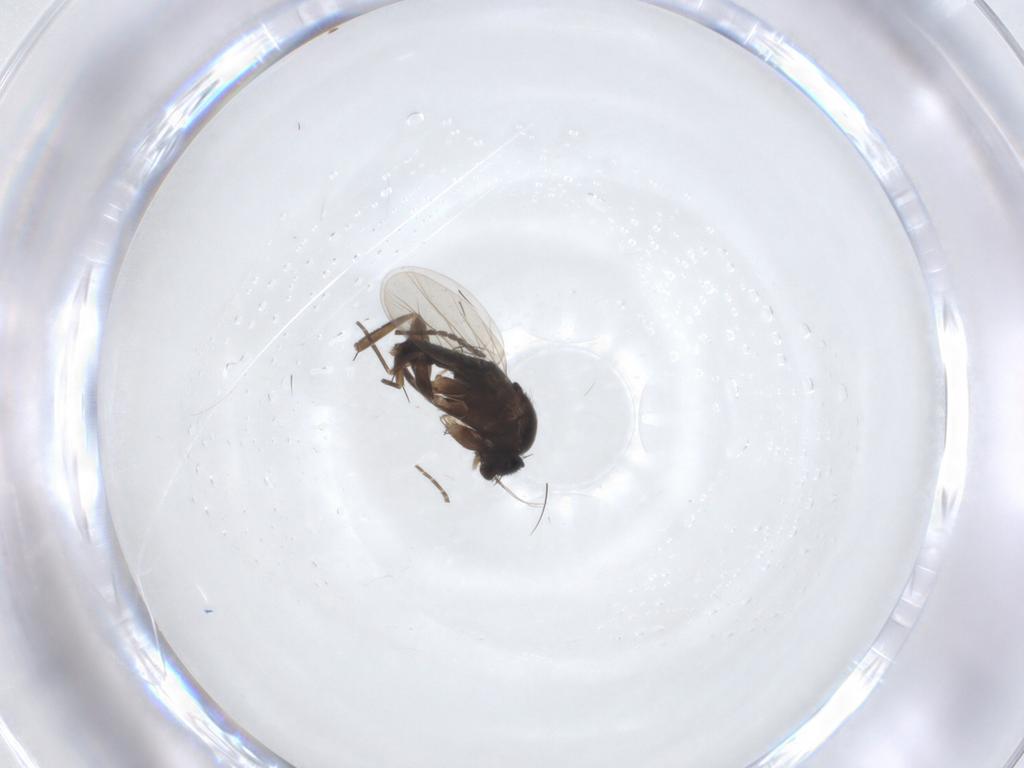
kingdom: Animalia
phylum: Arthropoda
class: Insecta
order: Diptera
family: Phoridae
